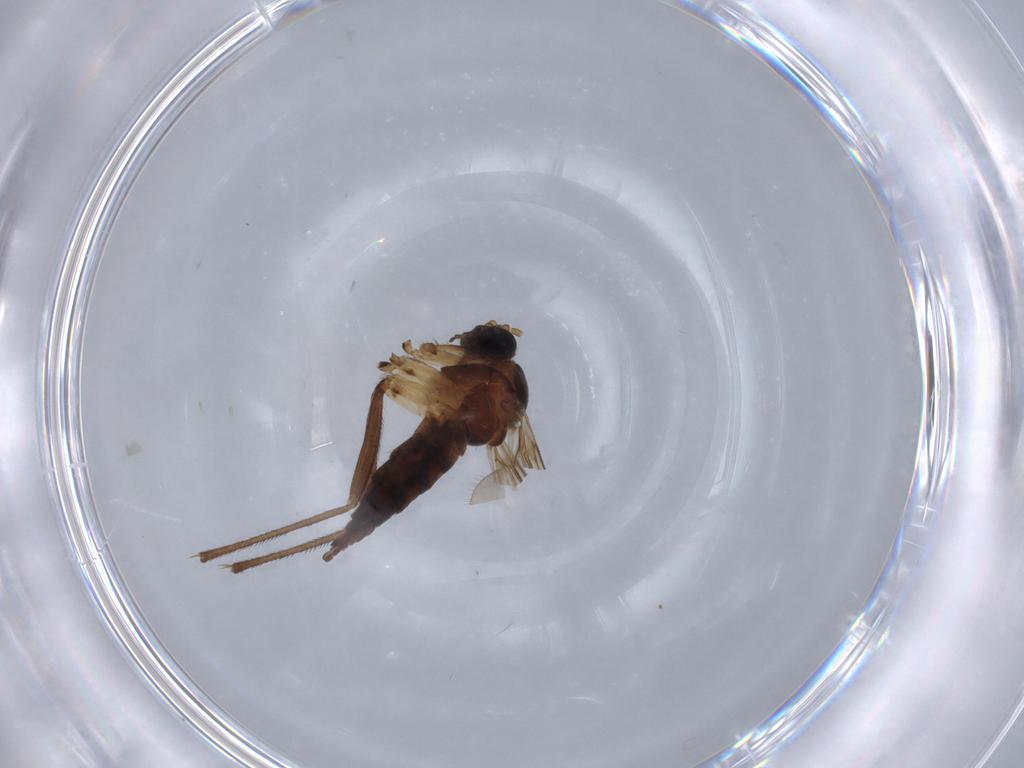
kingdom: Animalia
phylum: Arthropoda
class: Insecta
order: Diptera
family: Sciaridae
